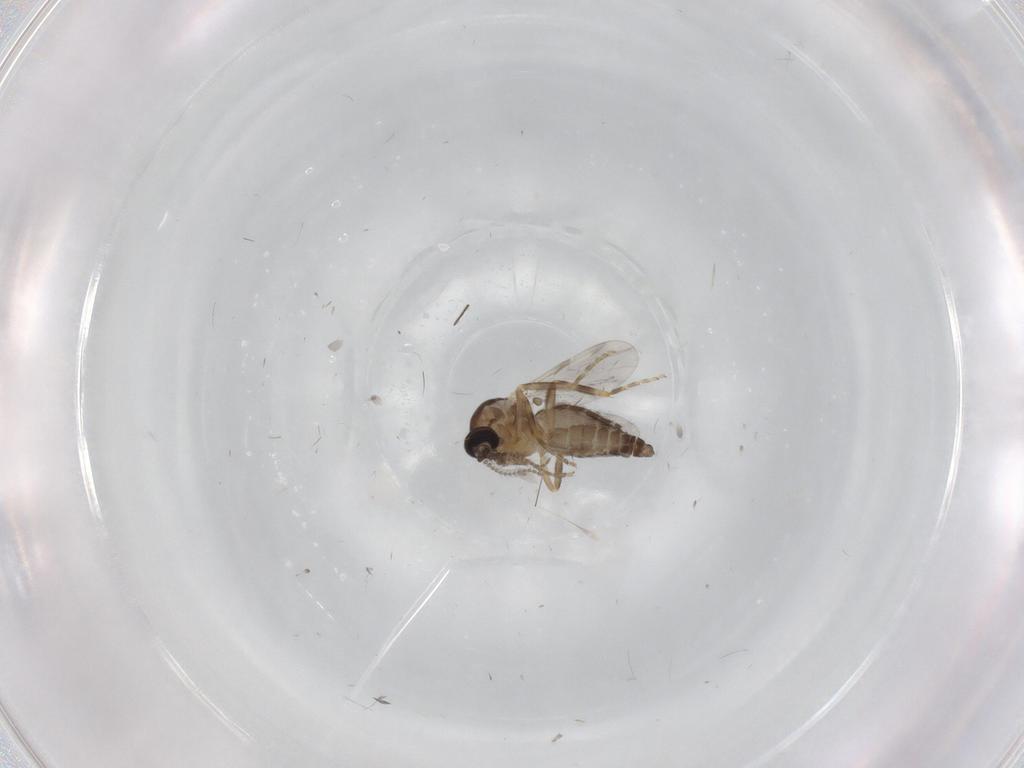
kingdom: Animalia
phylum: Arthropoda
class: Insecta
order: Diptera
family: Ceratopogonidae
